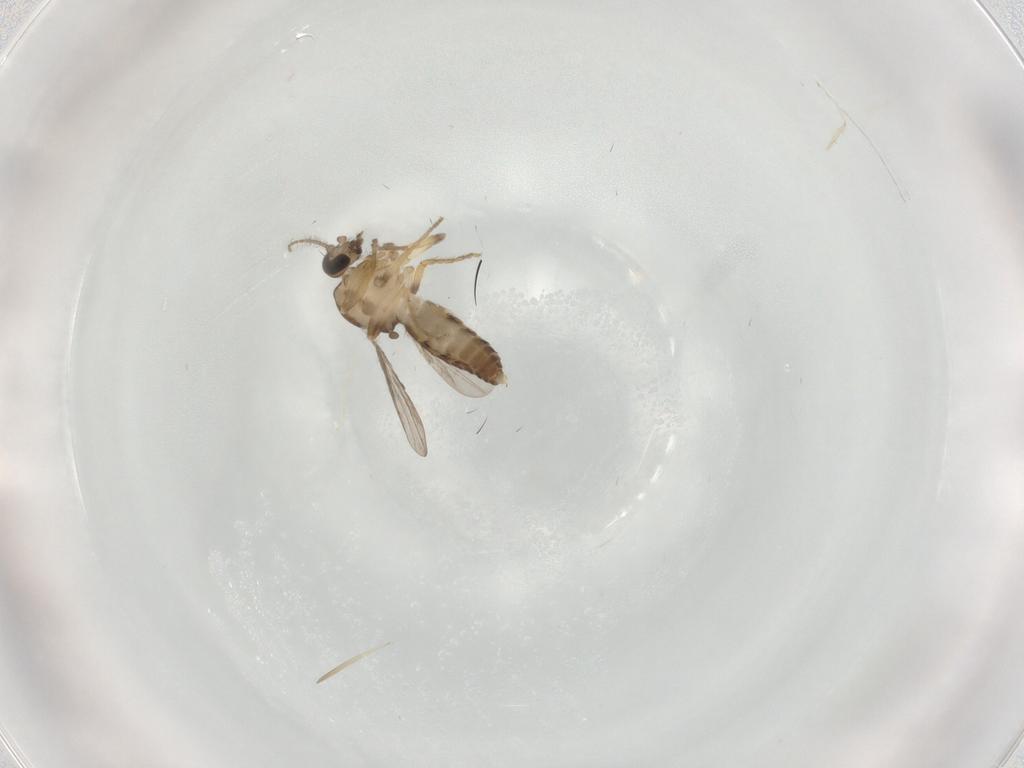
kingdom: Animalia
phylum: Arthropoda
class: Insecta
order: Diptera
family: Ceratopogonidae
